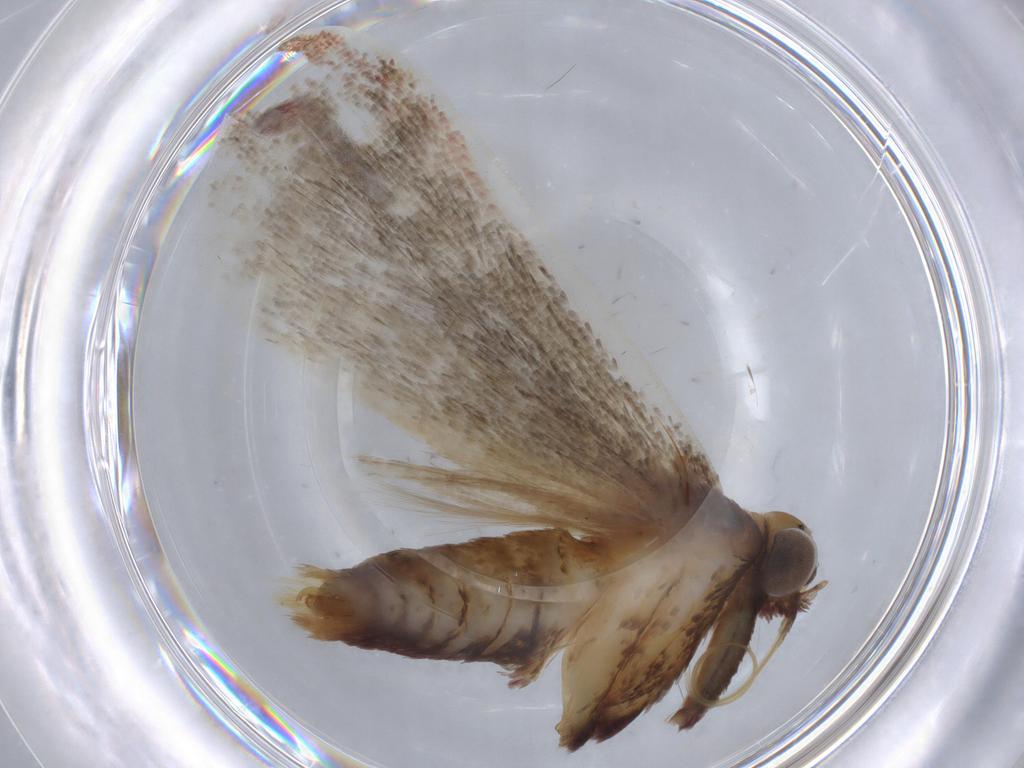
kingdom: Animalia
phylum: Arthropoda
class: Insecta
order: Lepidoptera
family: Pyralidae
